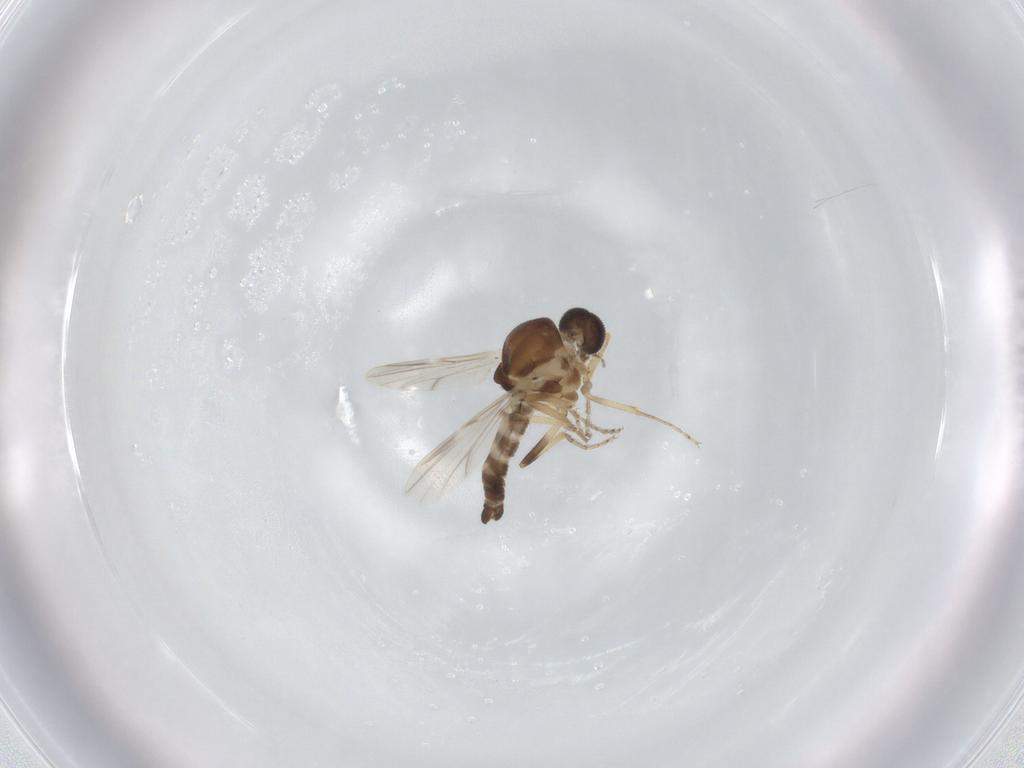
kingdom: Animalia
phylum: Arthropoda
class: Insecta
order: Diptera
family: Ceratopogonidae
